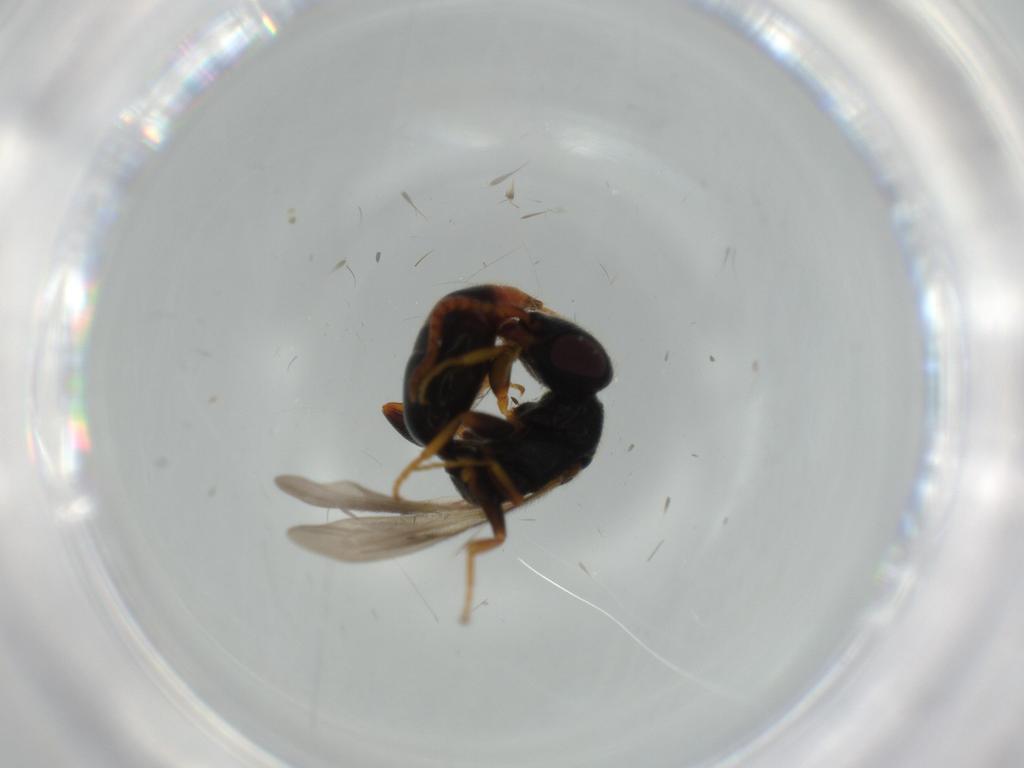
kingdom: Animalia
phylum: Arthropoda
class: Insecta
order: Hymenoptera
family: Bethylidae
